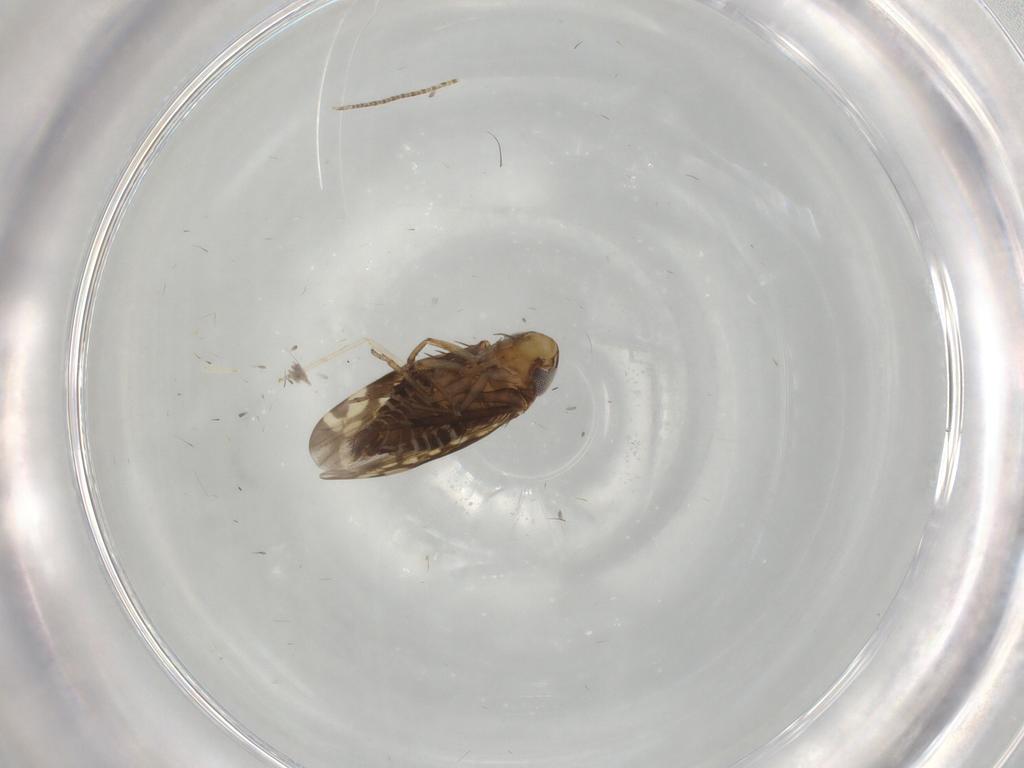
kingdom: Animalia
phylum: Arthropoda
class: Insecta
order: Hemiptera
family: Cicadellidae
